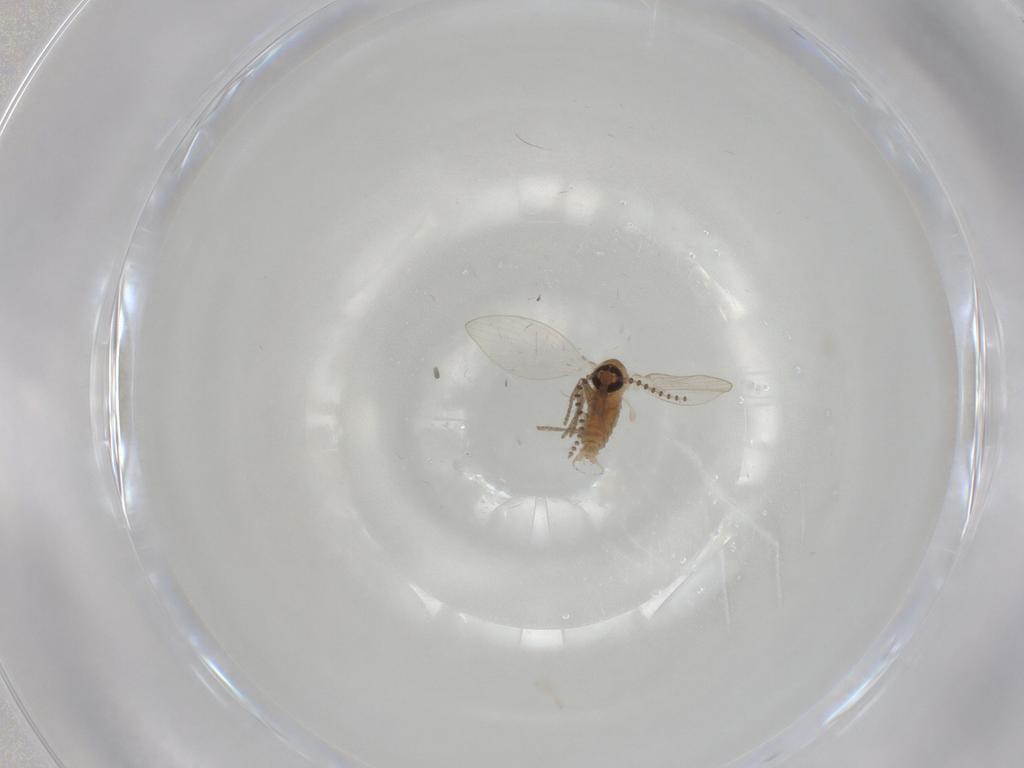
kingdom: Animalia
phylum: Arthropoda
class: Insecta
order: Diptera
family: Psychodidae
